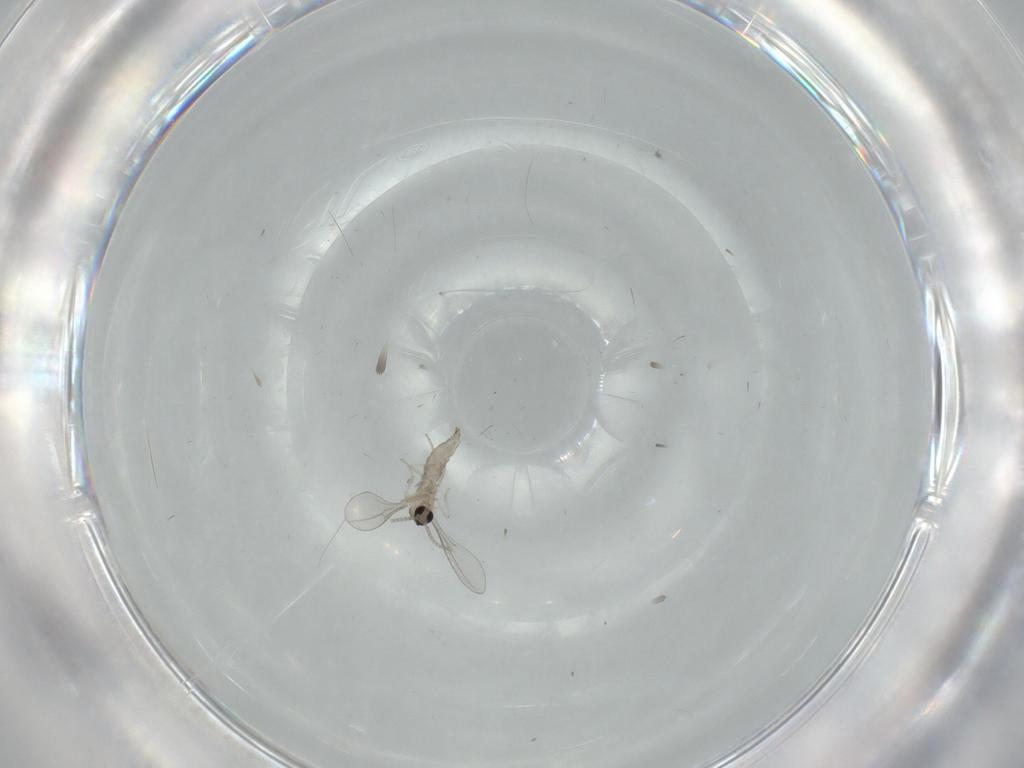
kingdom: Animalia
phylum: Arthropoda
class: Insecta
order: Diptera
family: Cecidomyiidae
